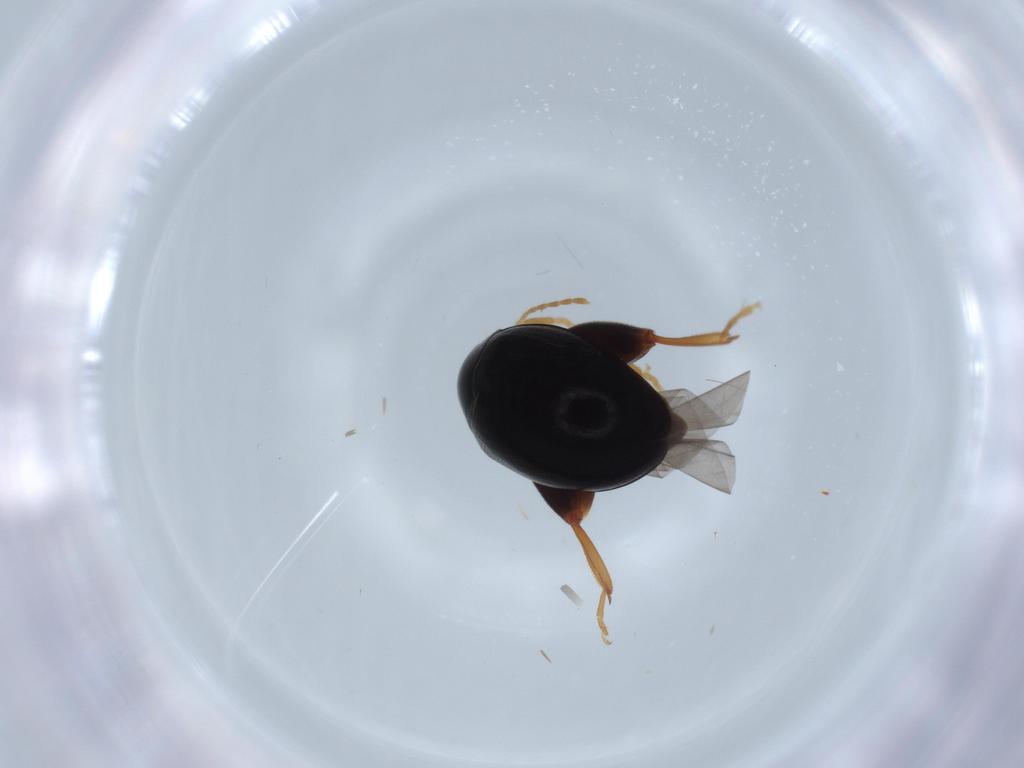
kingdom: Animalia
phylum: Arthropoda
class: Insecta
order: Coleoptera
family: Chrysomelidae
